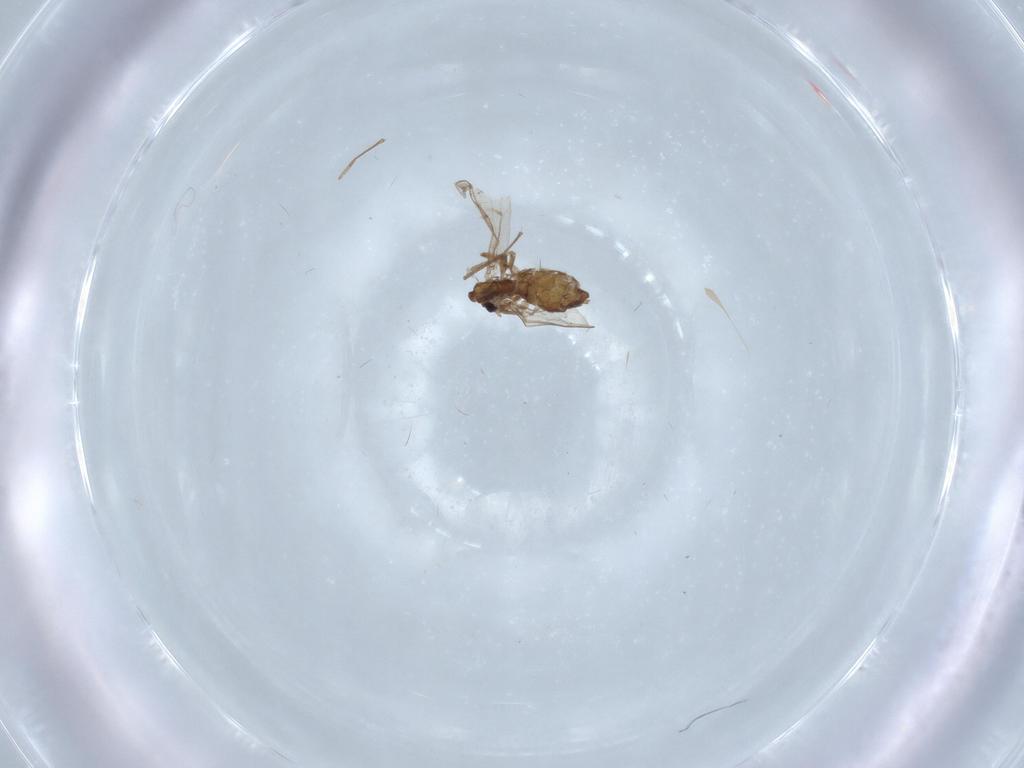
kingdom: Animalia
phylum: Arthropoda
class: Insecta
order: Diptera
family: Chironomidae
